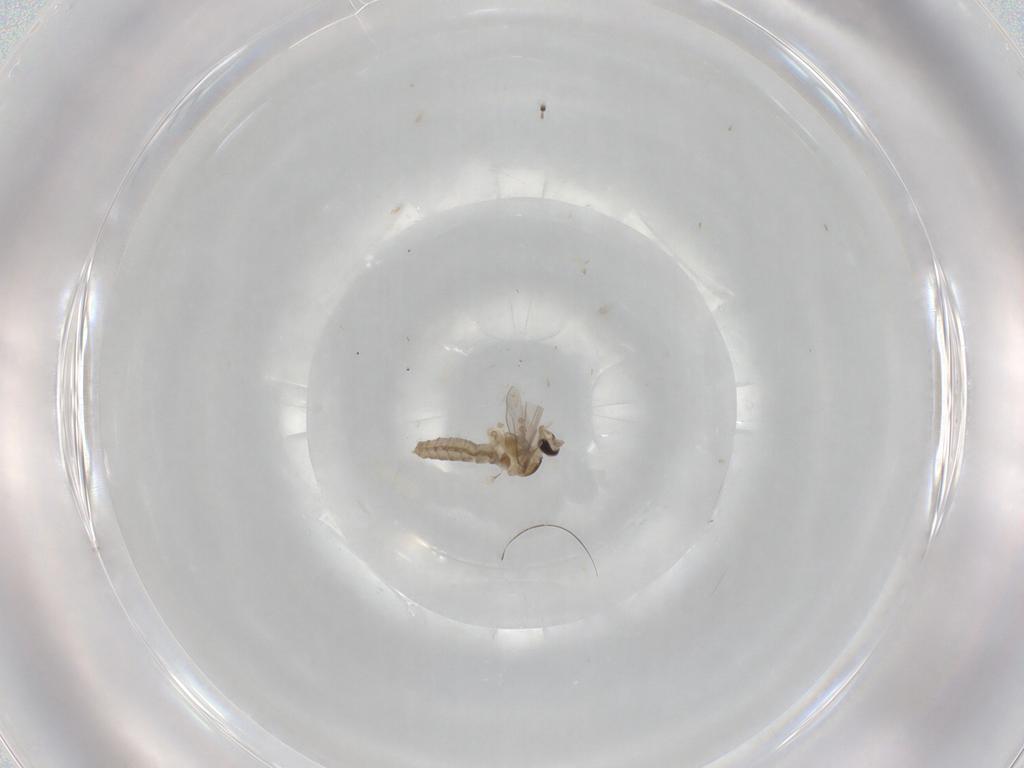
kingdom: Animalia
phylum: Arthropoda
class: Insecta
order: Diptera
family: Cecidomyiidae
